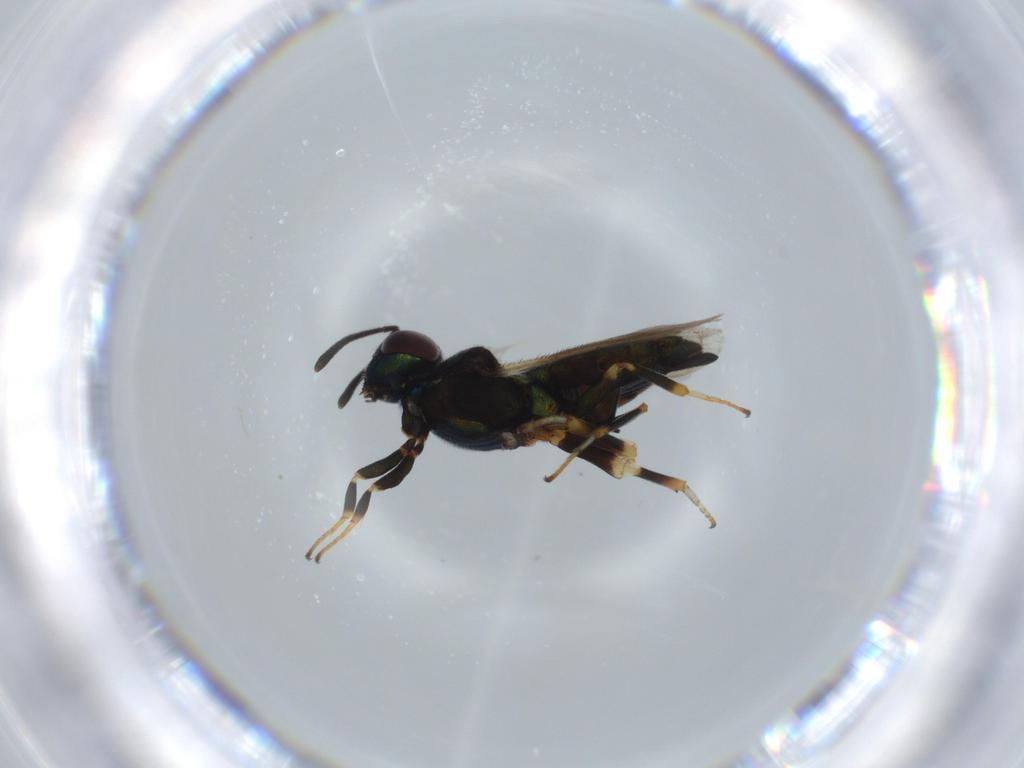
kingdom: Animalia
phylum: Arthropoda
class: Insecta
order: Hymenoptera
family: Eupelmidae
